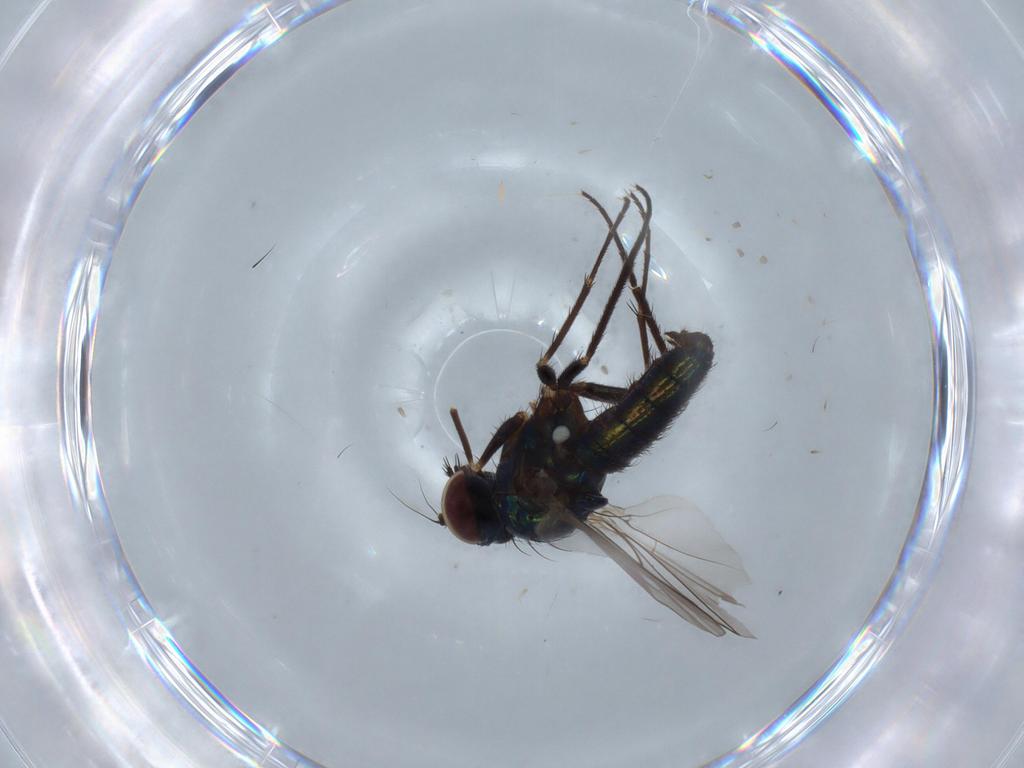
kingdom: Animalia
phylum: Arthropoda
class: Insecta
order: Diptera
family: Dolichopodidae
